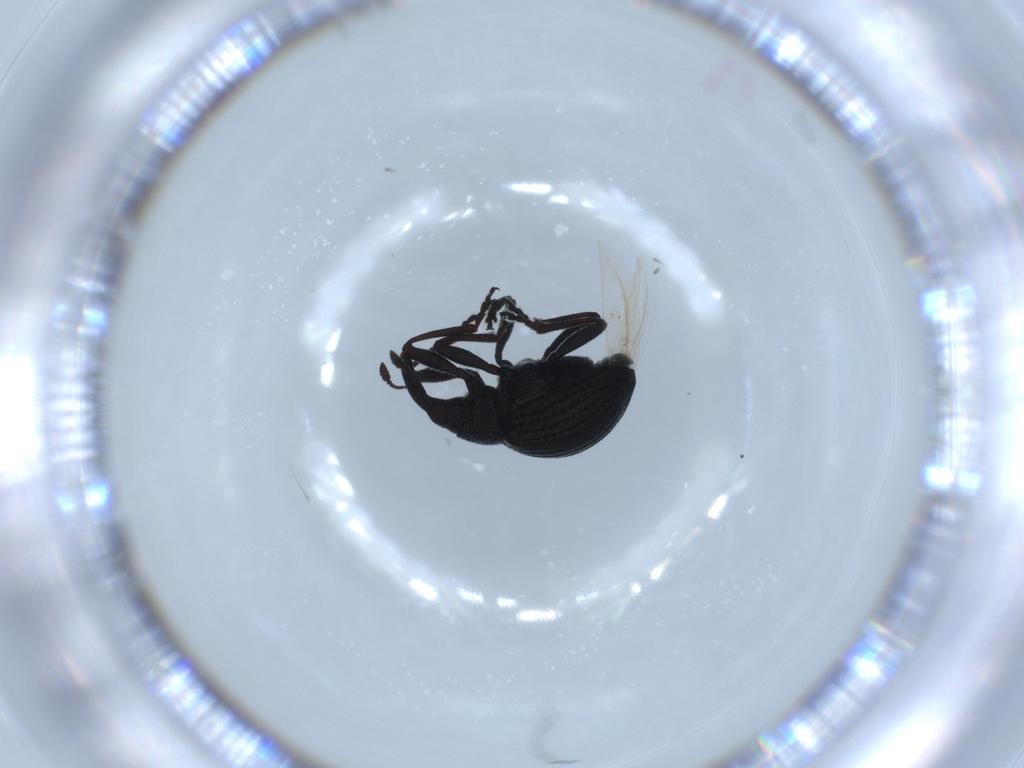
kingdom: Animalia
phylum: Arthropoda
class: Insecta
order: Coleoptera
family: Brentidae
